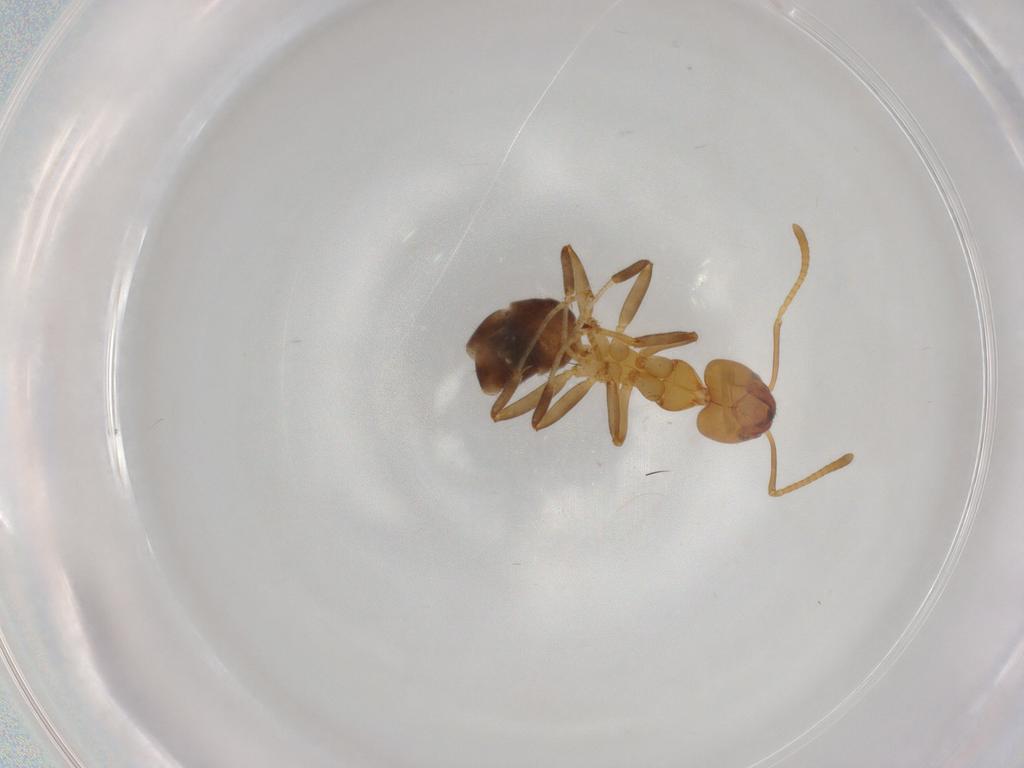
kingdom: Animalia
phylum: Arthropoda
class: Insecta
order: Hymenoptera
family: Formicidae
